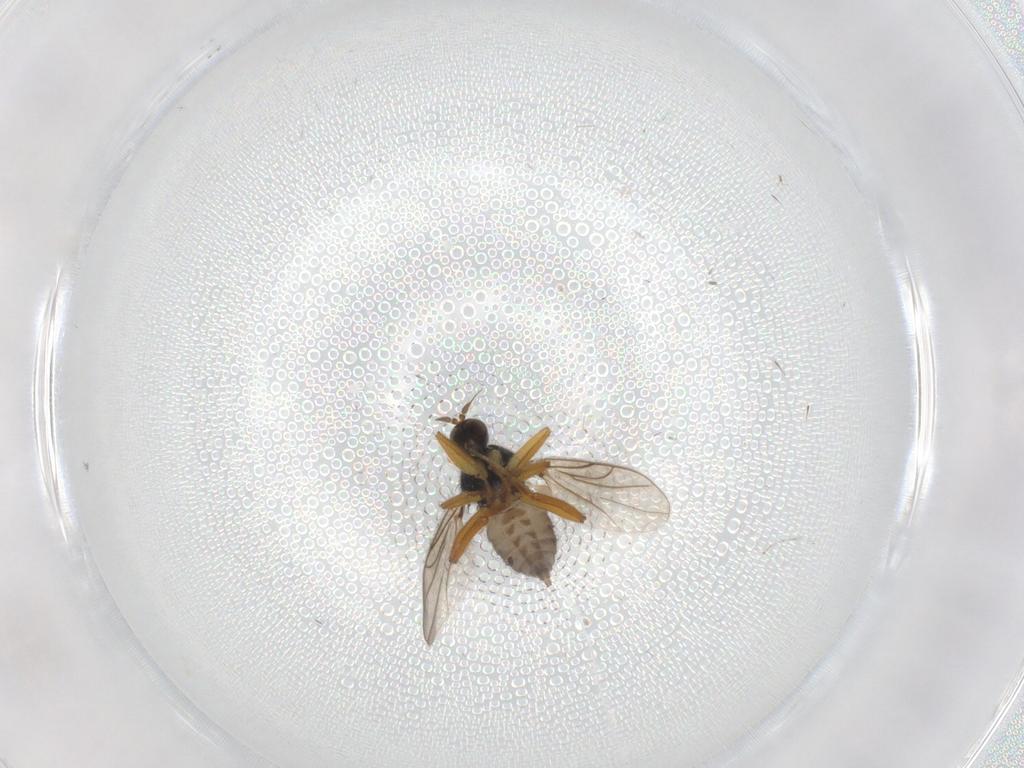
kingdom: Animalia
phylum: Arthropoda
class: Insecta
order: Diptera
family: Hybotidae
